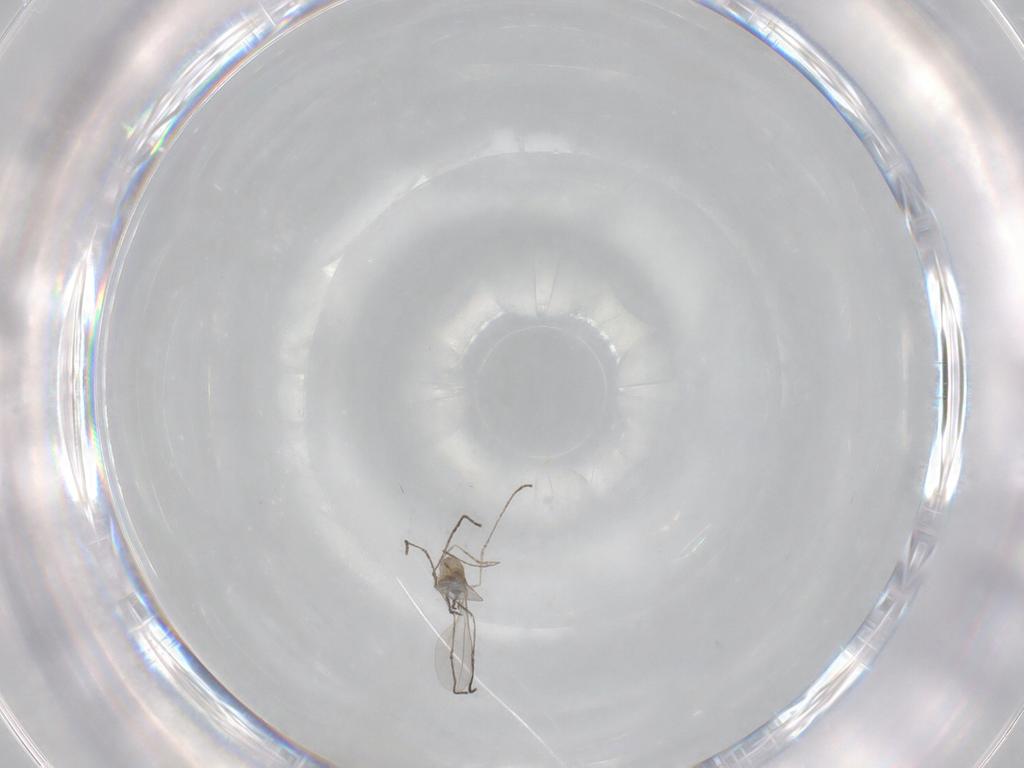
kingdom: Animalia
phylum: Arthropoda
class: Insecta
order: Diptera
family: Cecidomyiidae
